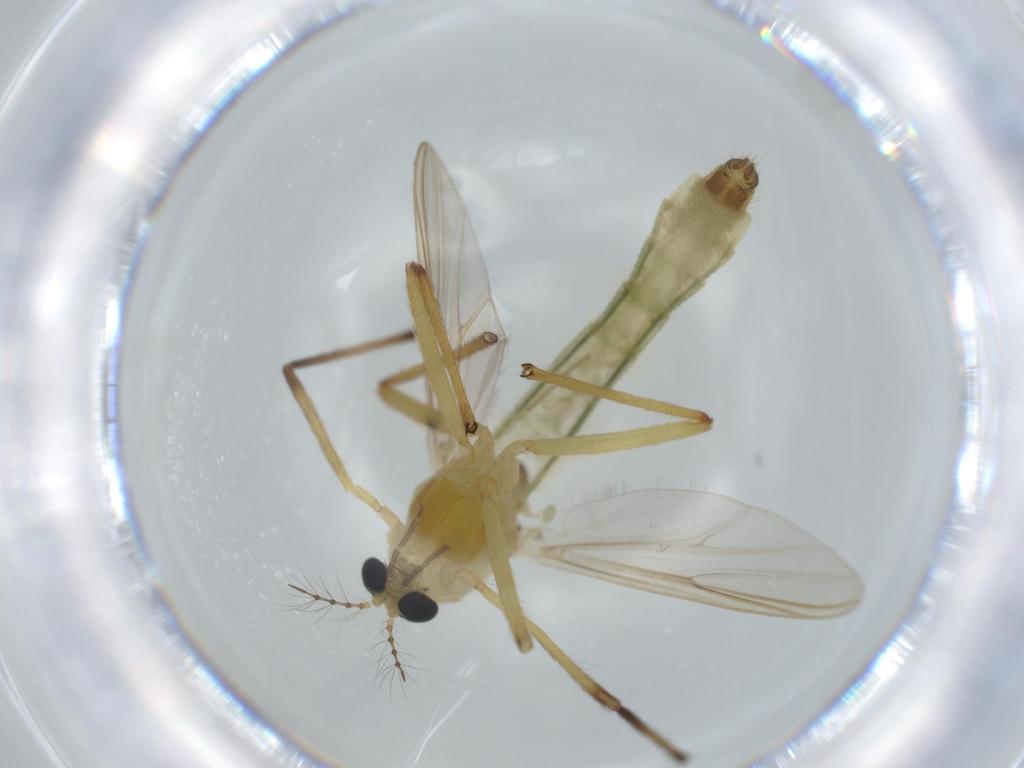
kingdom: Animalia
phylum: Arthropoda
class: Insecta
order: Diptera
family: Chironomidae
